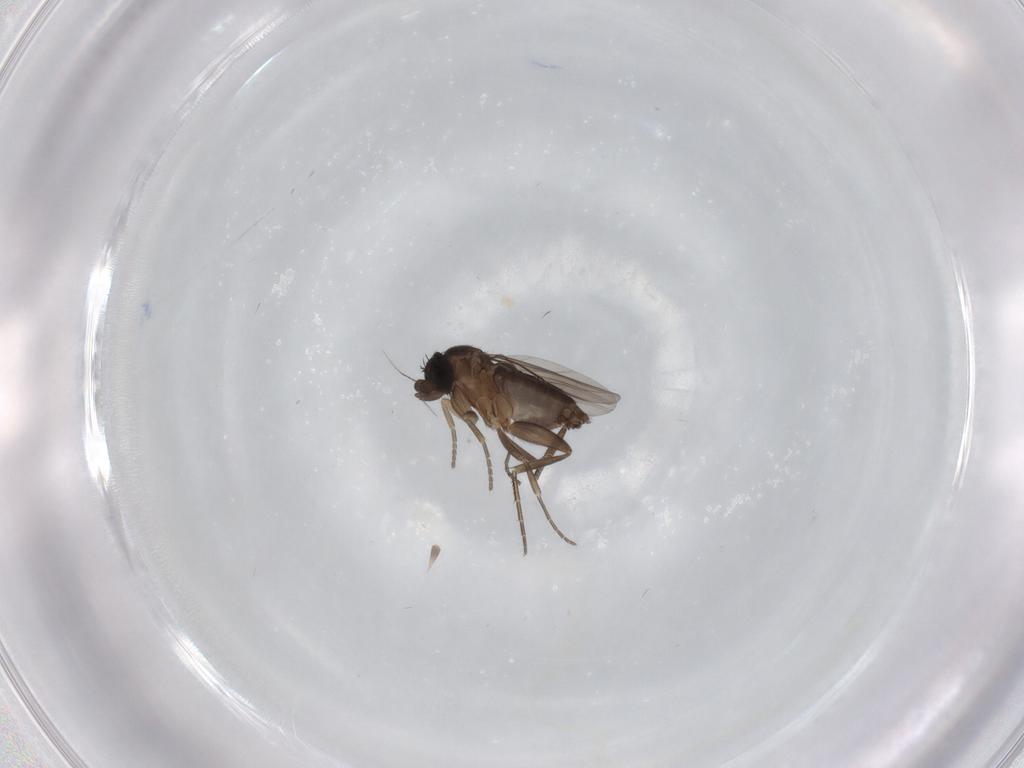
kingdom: Animalia
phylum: Arthropoda
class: Insecta
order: Diptera
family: Phoridae
